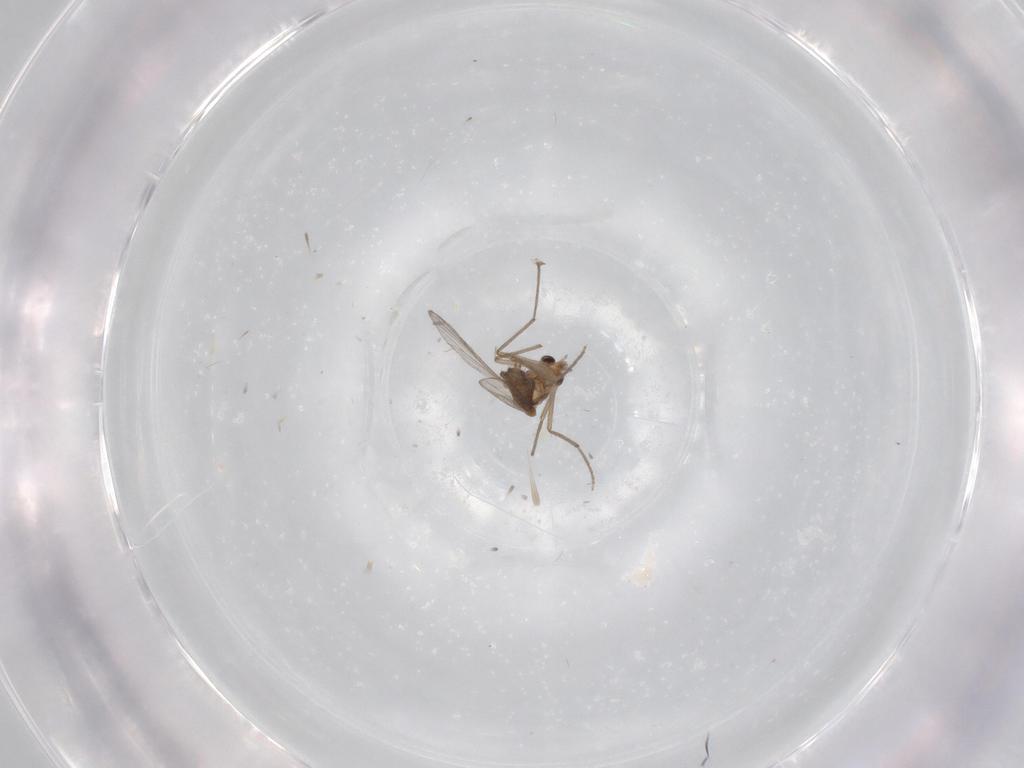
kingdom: Animalia
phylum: Arthropoda
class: Insecta
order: Diptera
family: Chironomidae
